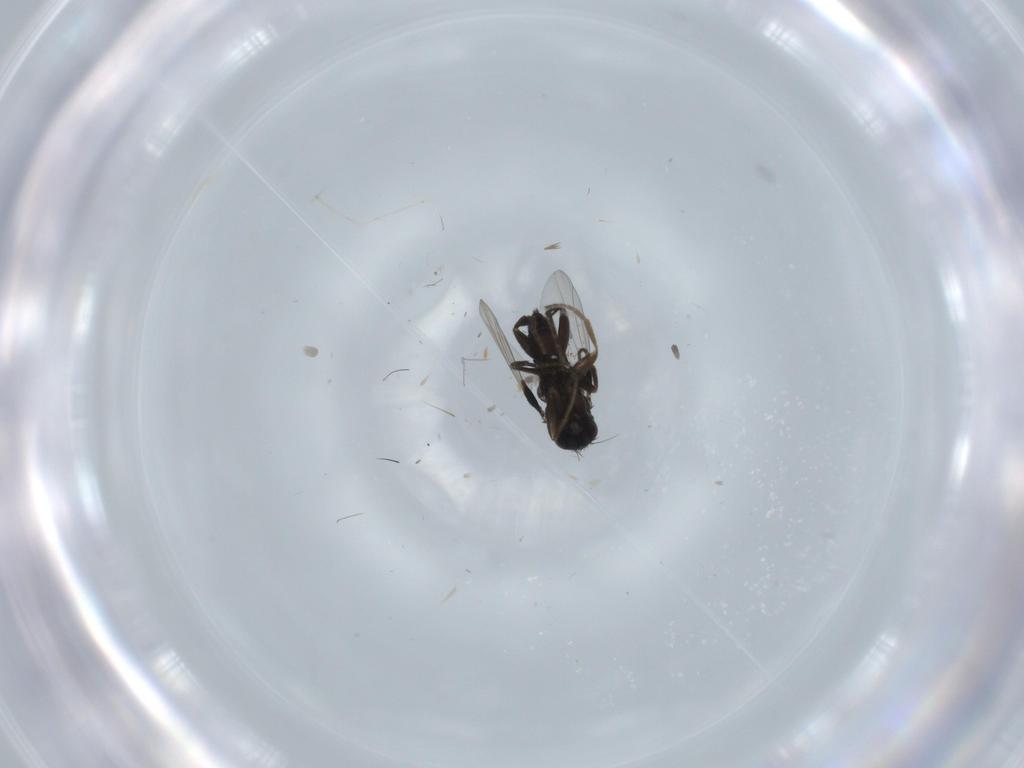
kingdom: Animalia
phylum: Arthropoda
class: Insecta
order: Diptera
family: Cecidomyiidae
